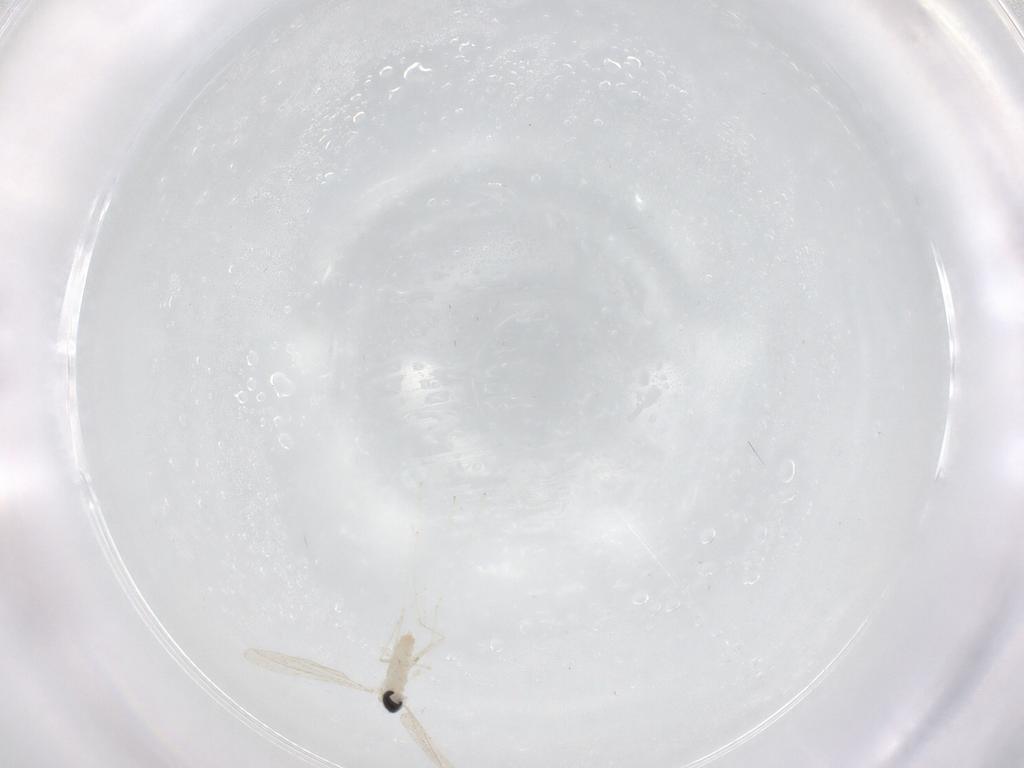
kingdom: Animalia
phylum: Arthropoda
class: Insecta
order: Diptera
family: Cecidomyiidae
